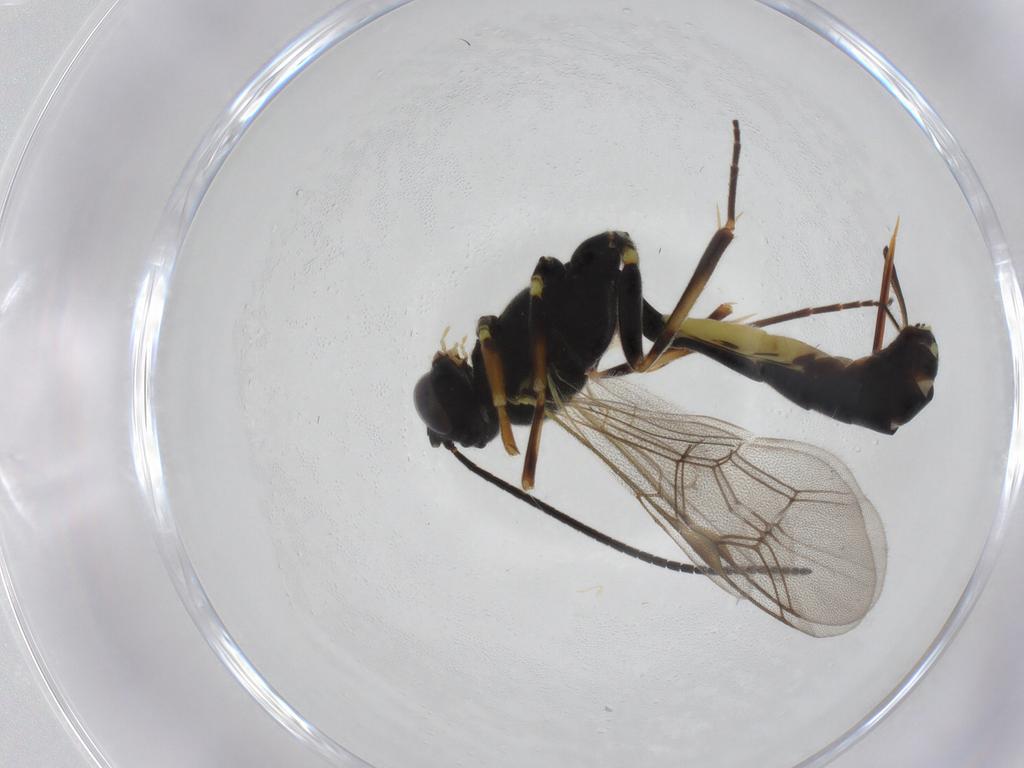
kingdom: Animalia
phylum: Arthropoda
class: Insecta
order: Hymenoptera
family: Ichneumonidae
